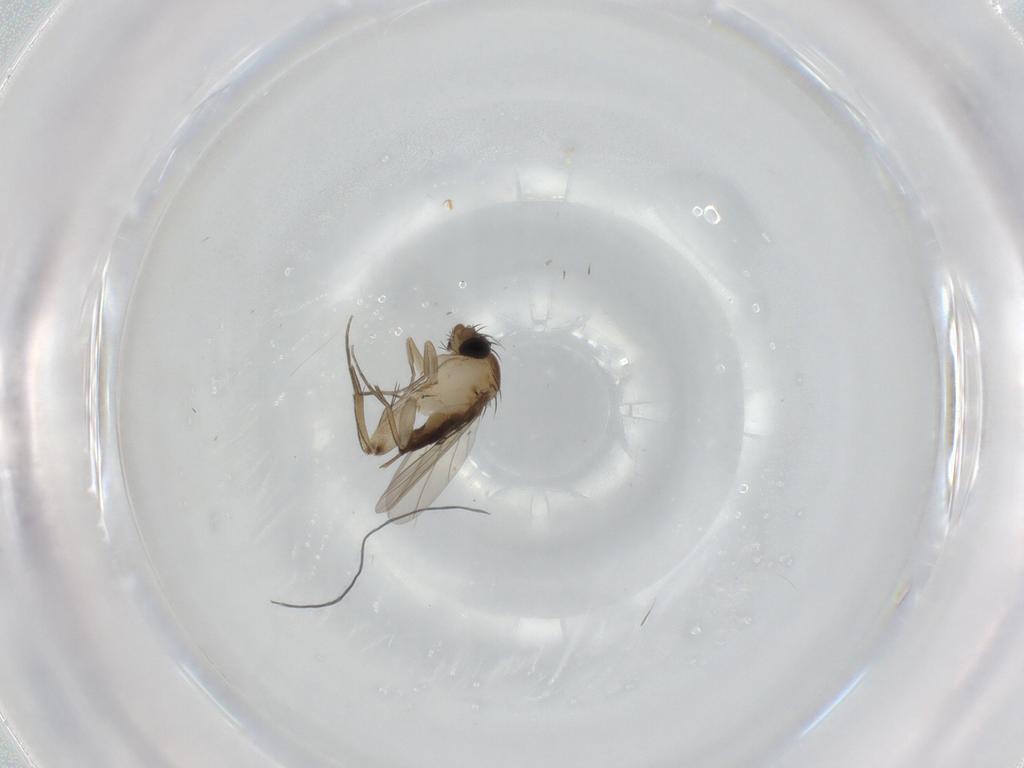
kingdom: Animalia
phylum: Arthropoda
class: Insecta
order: Diptera
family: Phoridae
